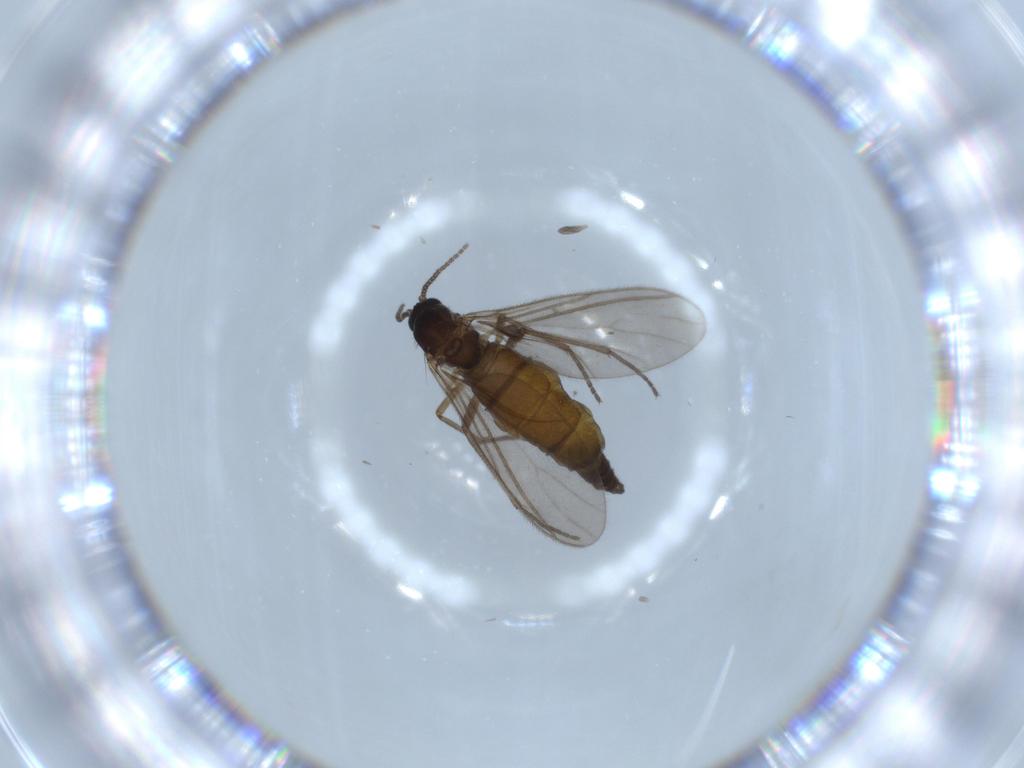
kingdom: Animalia
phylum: Arthropoda
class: Insecta
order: Diptera
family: Sciaridae
